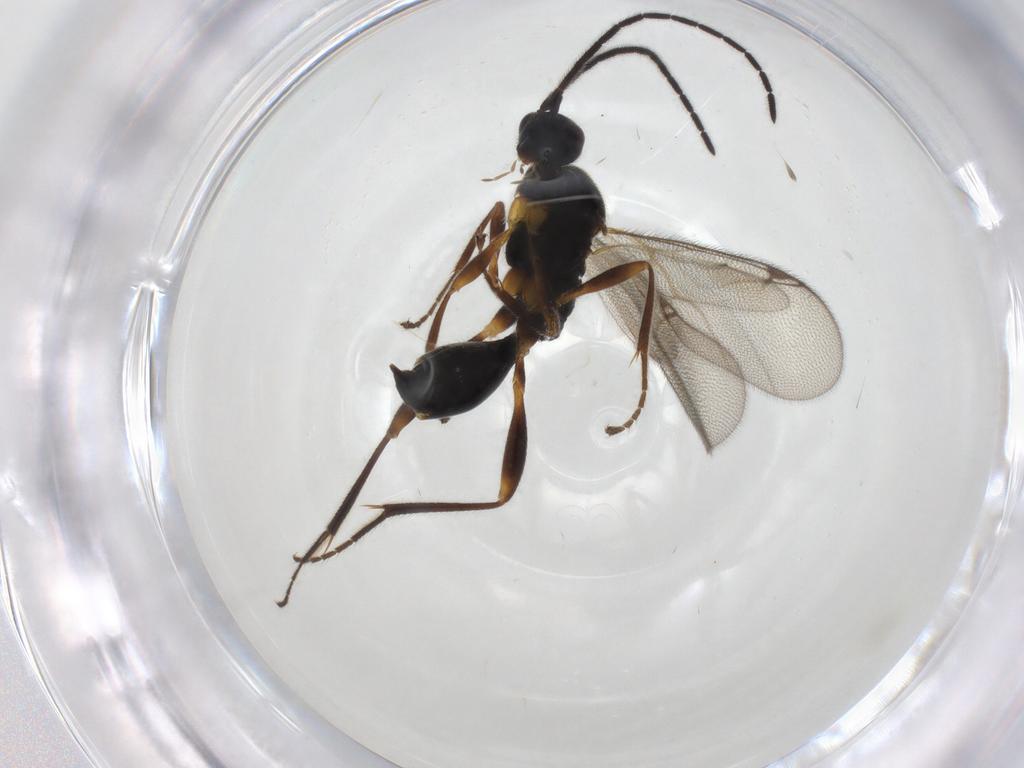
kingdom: Animalia
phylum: Arthropoda
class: Insecta
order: Hymenoptera
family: Proctotrupidae
